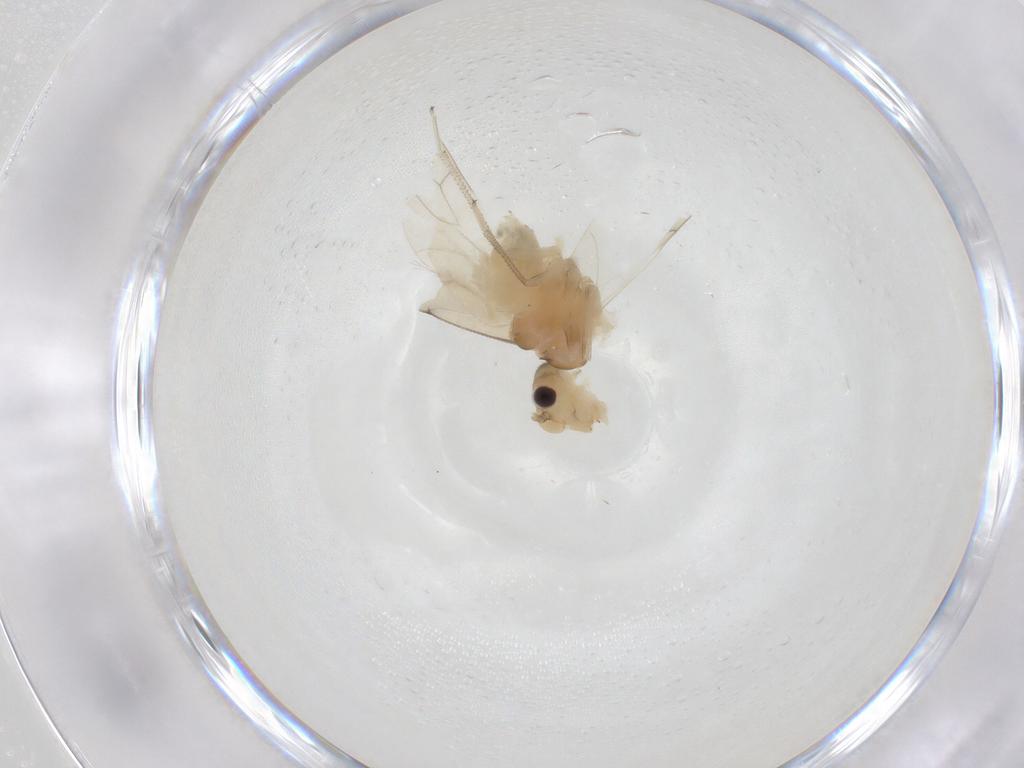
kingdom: Animalia
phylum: Arthropoda
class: Insecta
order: Psocodea
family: Caeciliusidae
